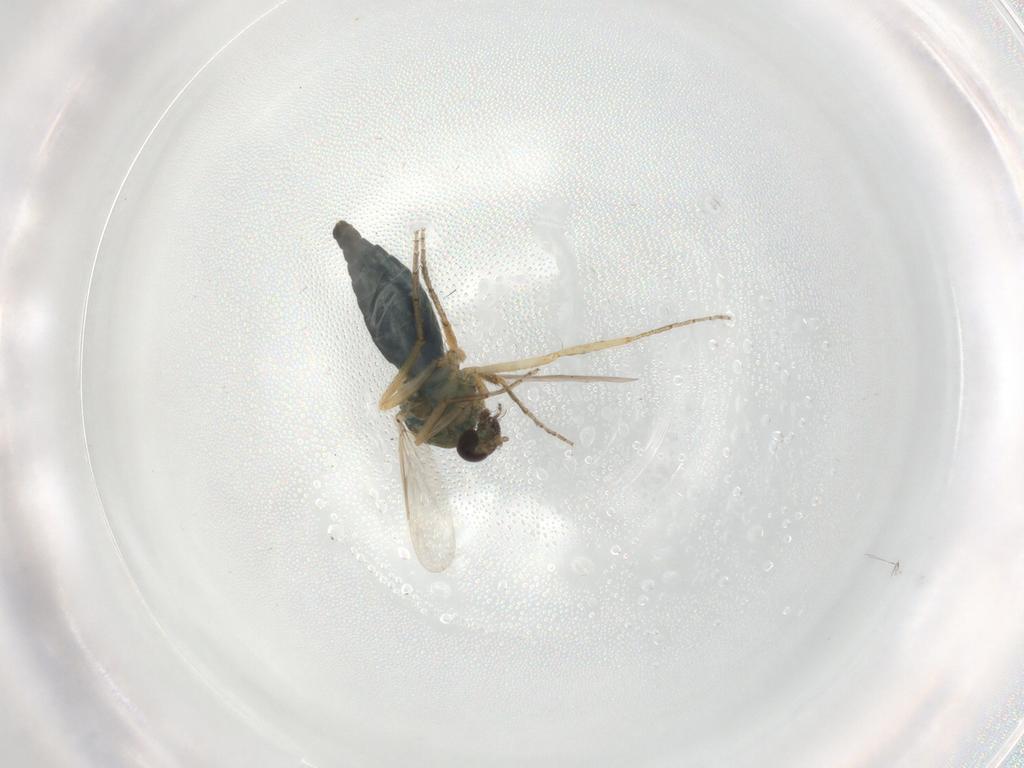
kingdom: Animalia
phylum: Arthropoda
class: Insecta
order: Diptera
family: Ceratopogonidae
